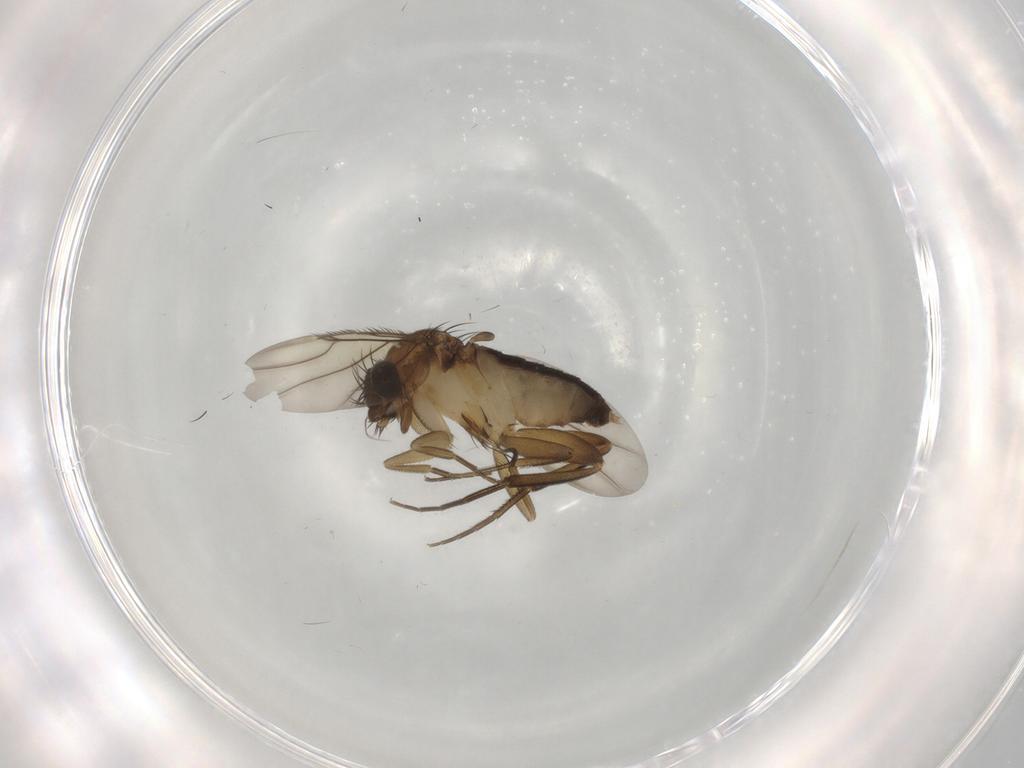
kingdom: Animalia
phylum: Arthropoda
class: Insecta
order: Diptera
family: Phoridae
